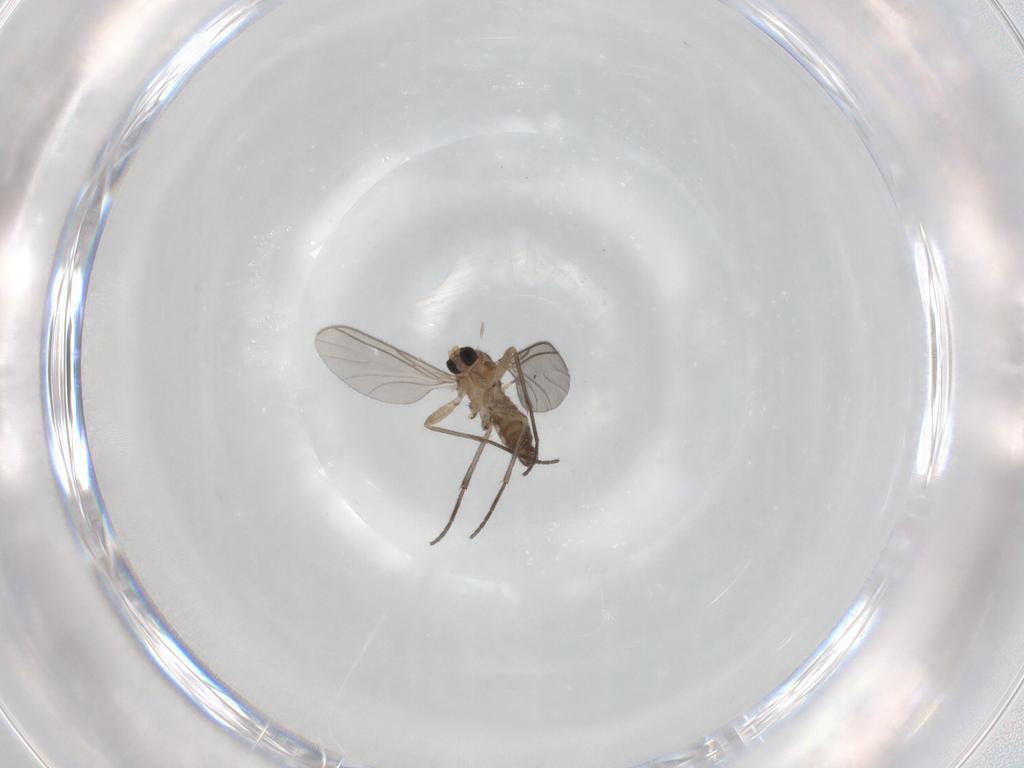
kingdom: Animalia
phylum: Arthropoda
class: Insecta
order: Diptera
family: Sciaridae
